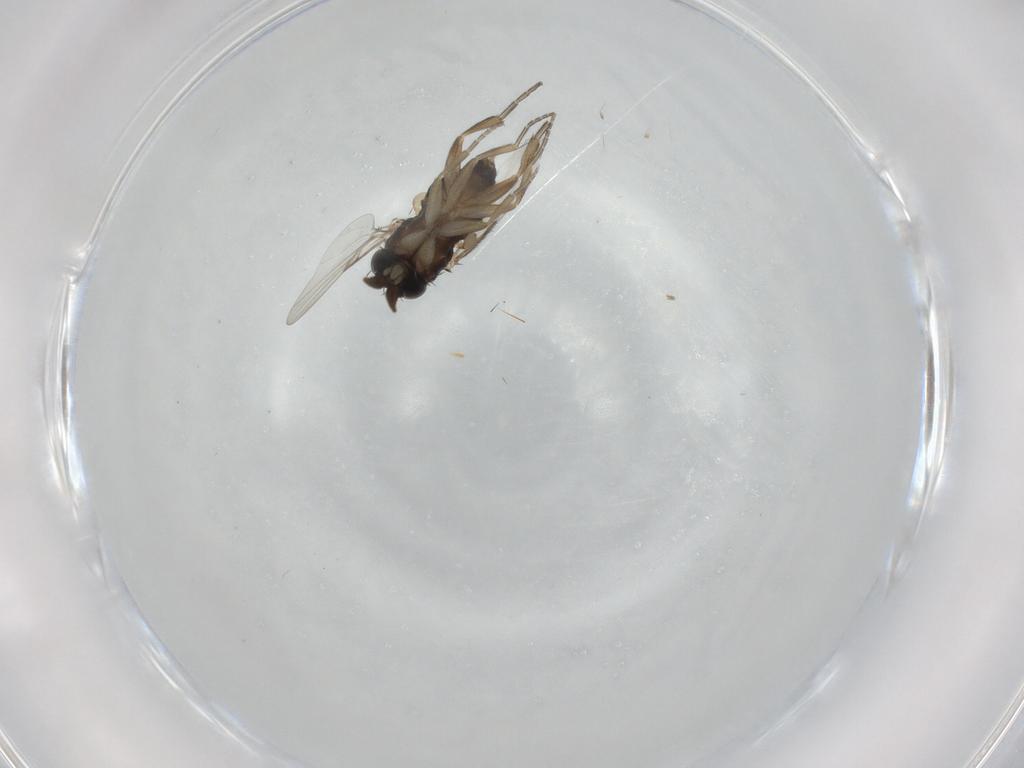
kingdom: Animalia
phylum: Arthropoda
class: Insecta
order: Diptera
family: Phoridae
